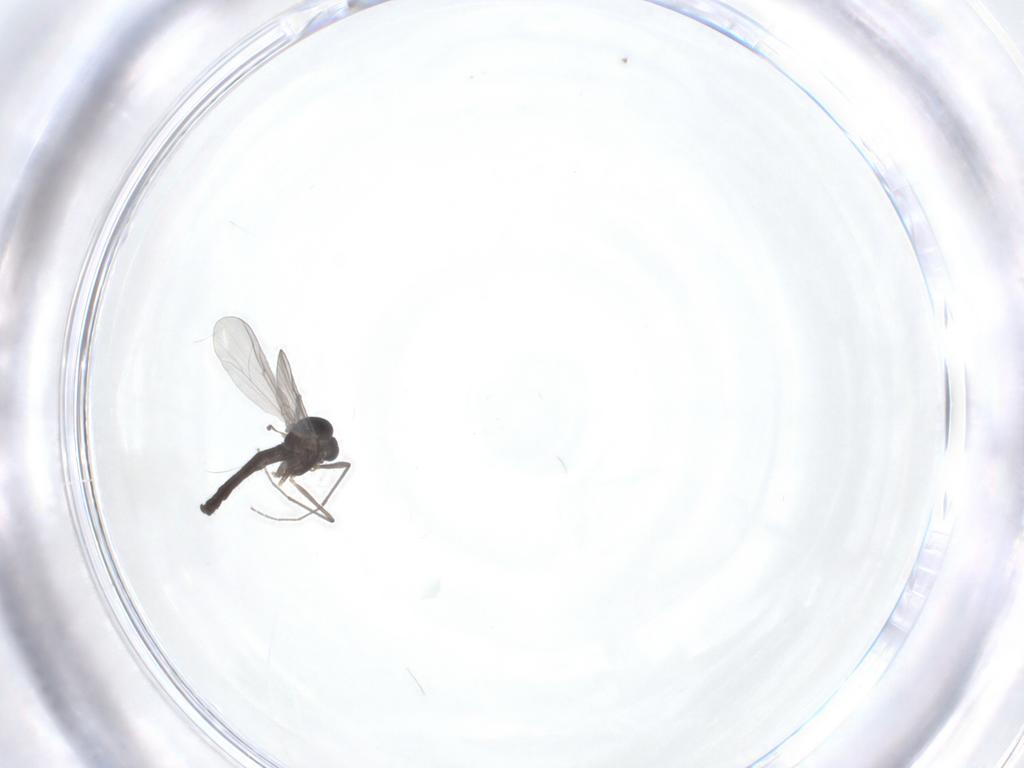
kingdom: Animalia
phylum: Arthropoda
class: Insecta
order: Diptera
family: Chironomidae
